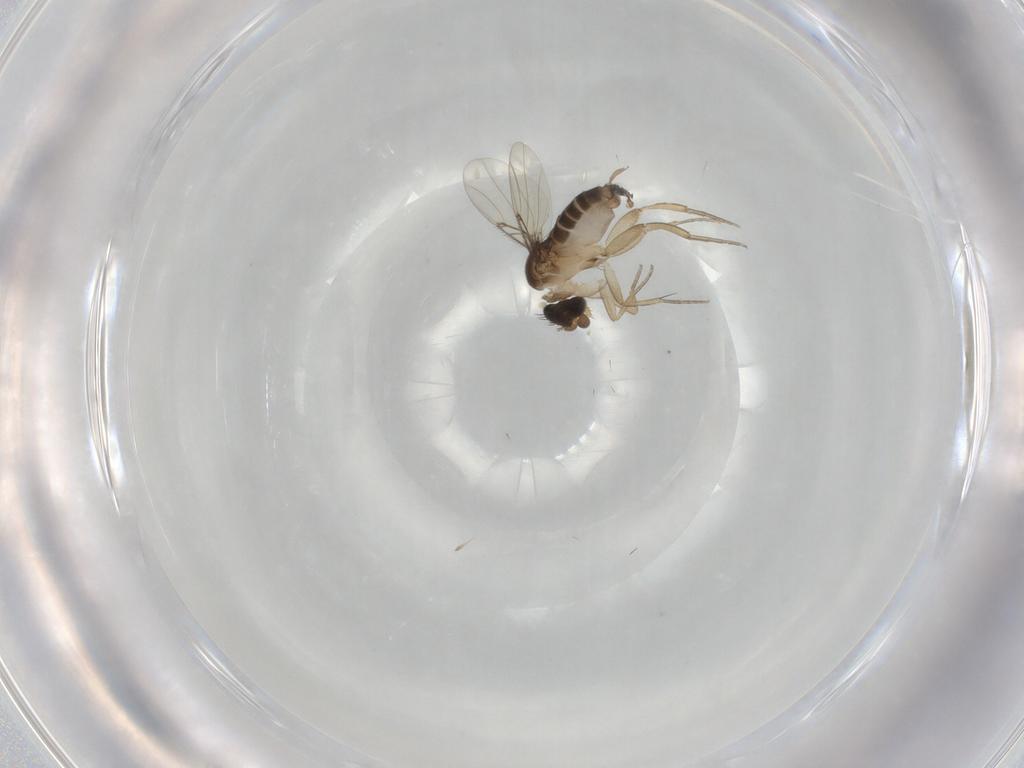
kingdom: Animalia
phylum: Arthropoda
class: Insecta
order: Diptera
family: Phoridae
